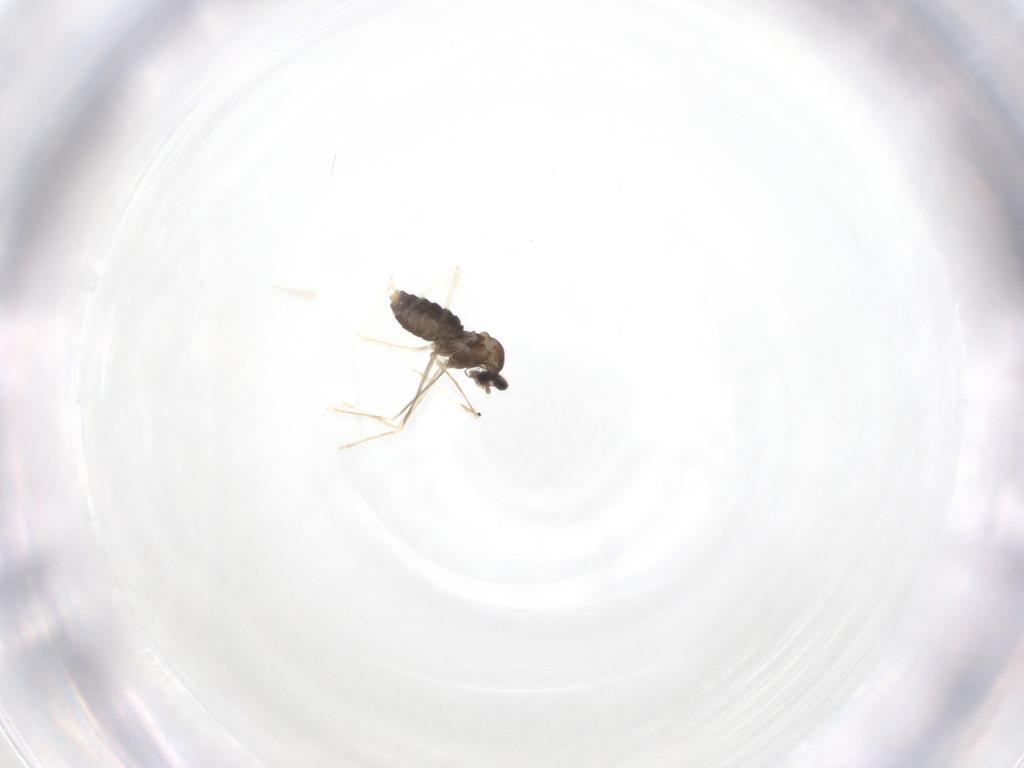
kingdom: Animalia
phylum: Arthropoda
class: Insecta
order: Diptera
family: Cecidomyiidae
